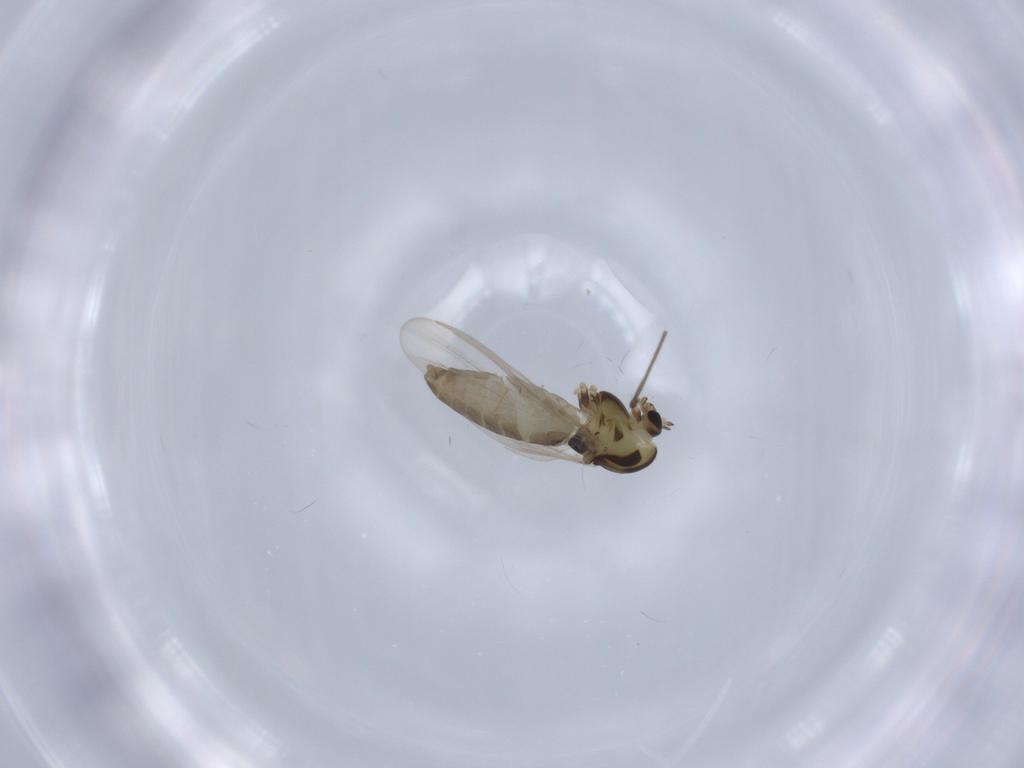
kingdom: Animalia
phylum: Arthropoda
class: Insecta
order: Diptera
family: Chironomidae
